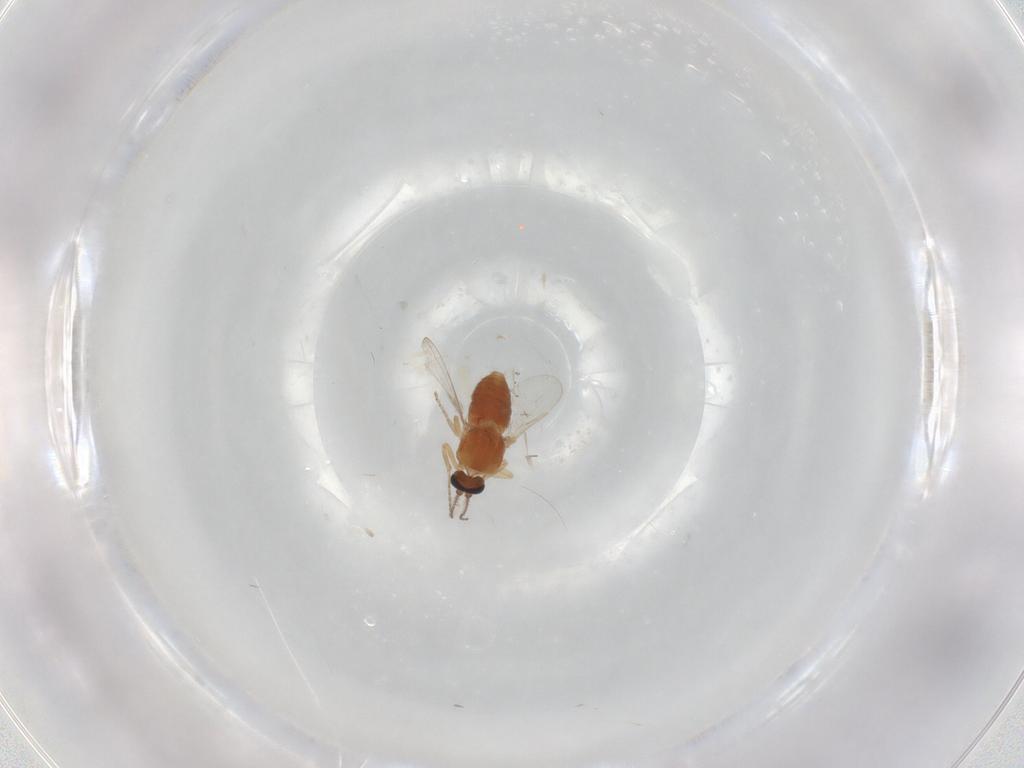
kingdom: Animalia
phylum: Arthropoda
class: Insecta
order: Diptera
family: Ceratopogonidae
